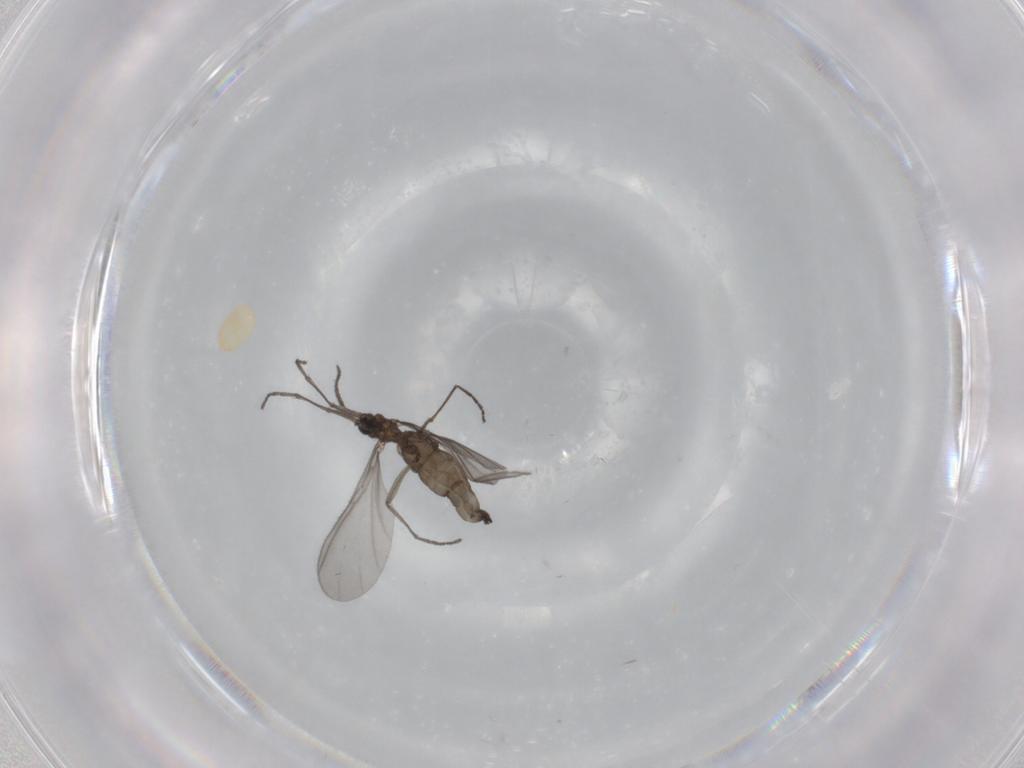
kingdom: Animalia
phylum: Arthropoda
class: Insecta
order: Diptera
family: Sciaridae
